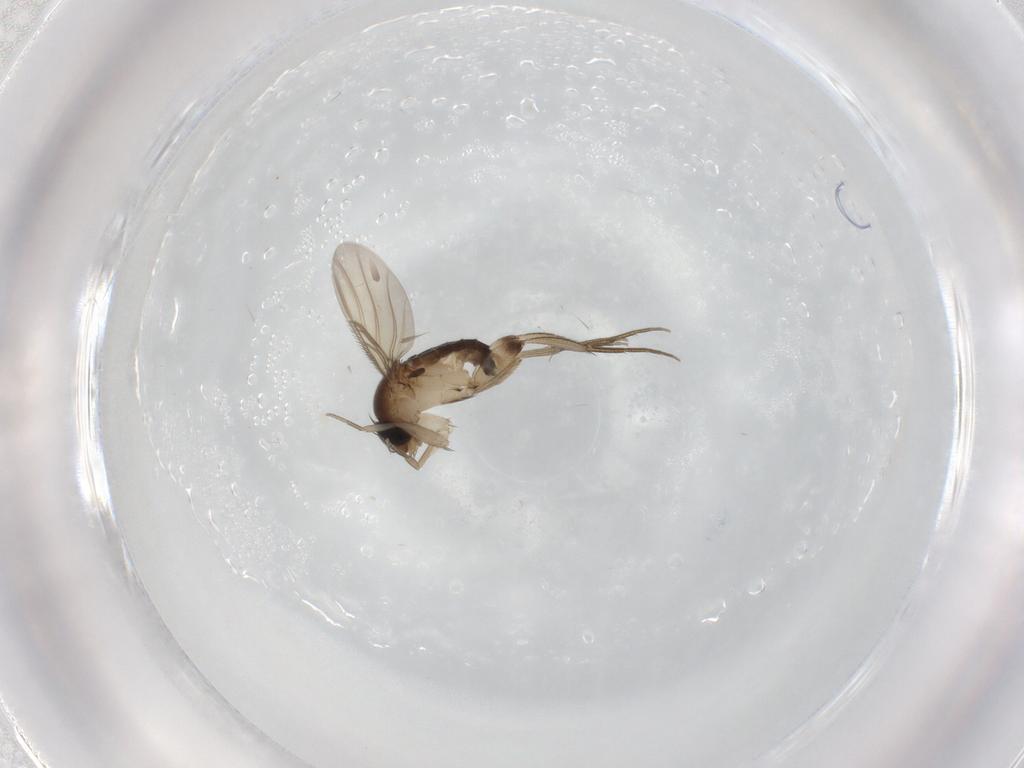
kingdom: Animalia
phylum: Arthropoda
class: Insecta
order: Diptera
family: Phoridae
